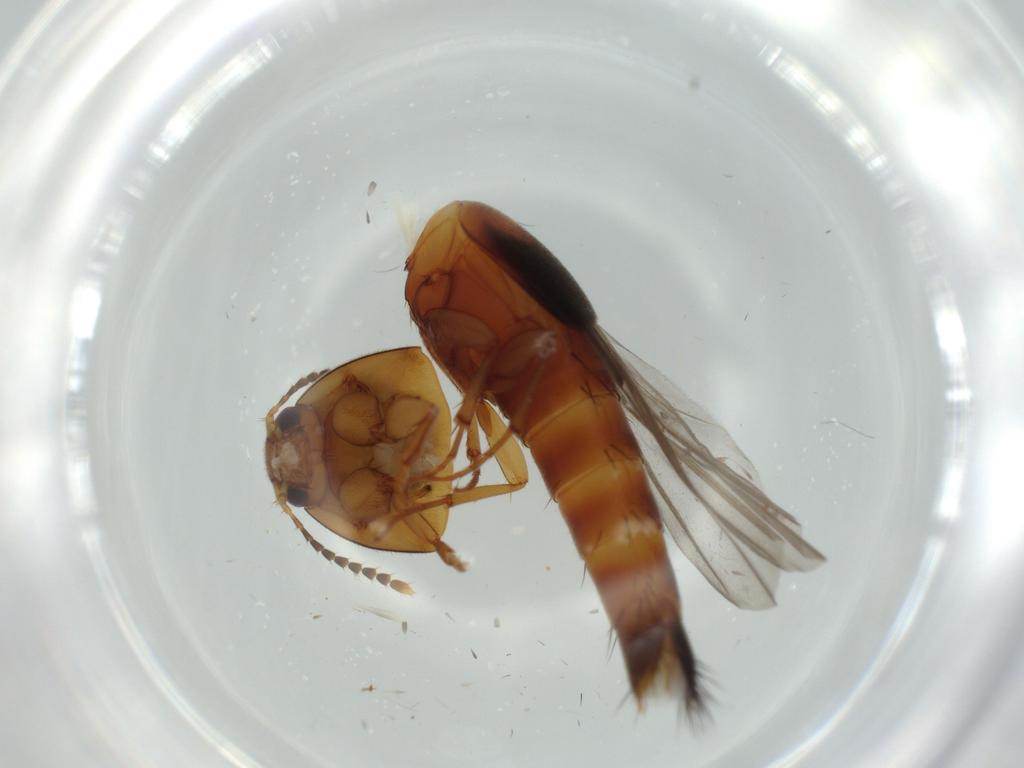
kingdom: Animalia
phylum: Arthropoda
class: Insecta
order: Coleoptera
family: Staphylinidae
